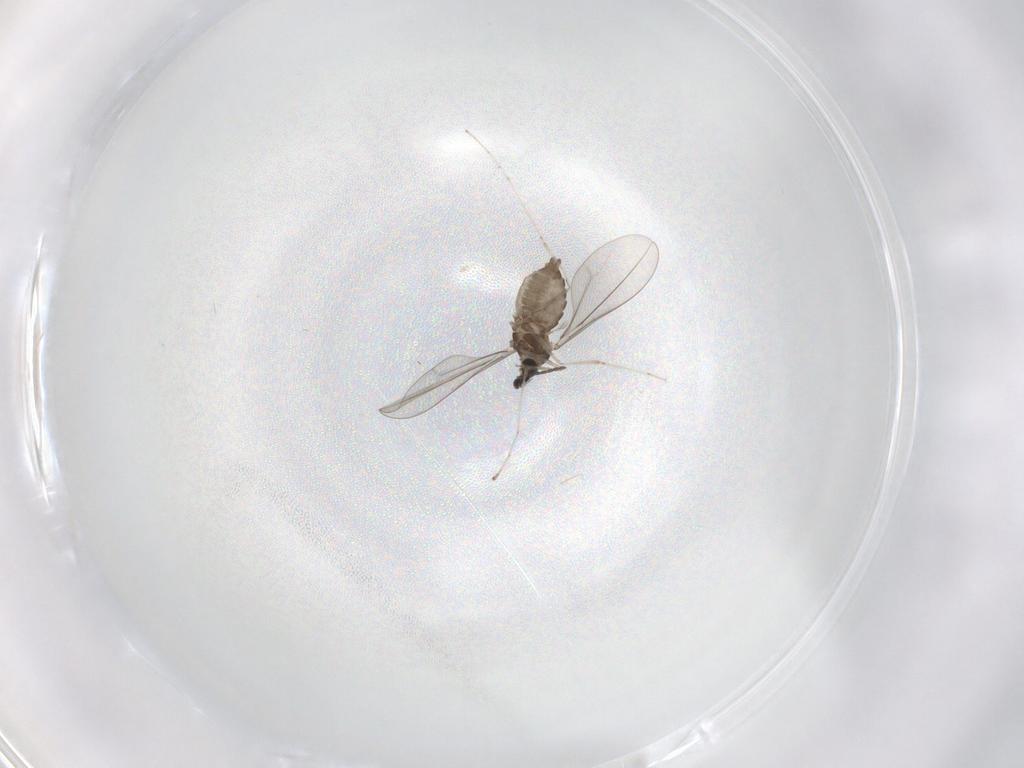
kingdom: Animalia
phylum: Arthropoda
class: Insecta
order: Diptera
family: Cecidomyiidae
